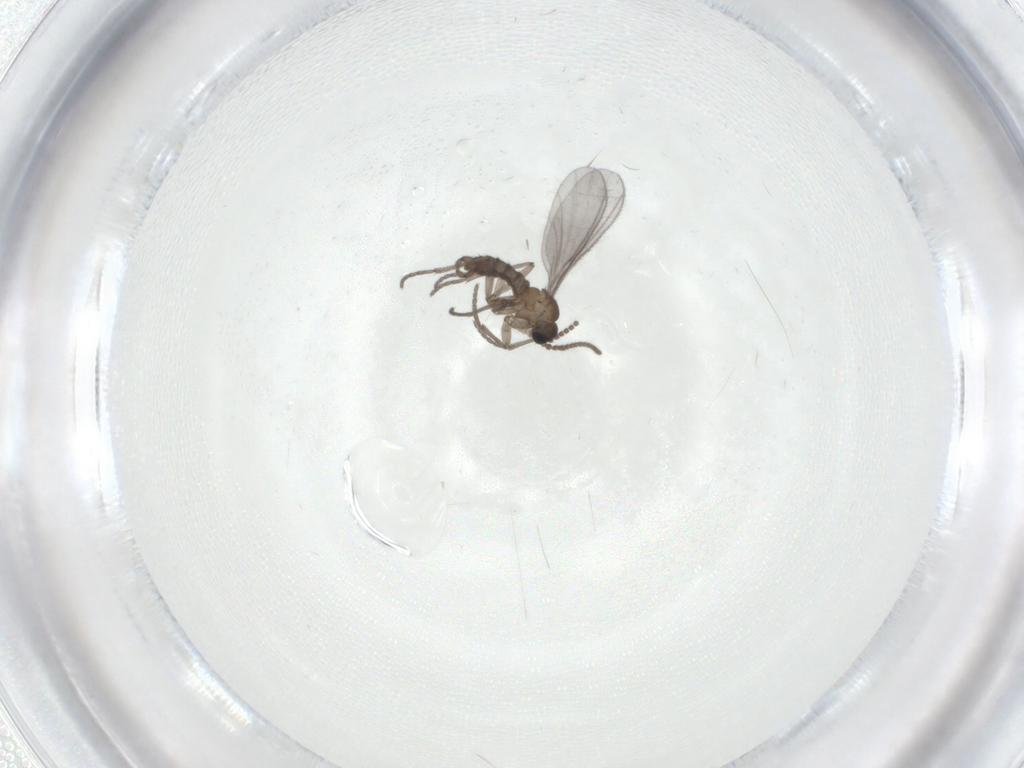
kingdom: Animalia
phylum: Arthropoda
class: Insecta
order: Diptera
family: Sciaridae
